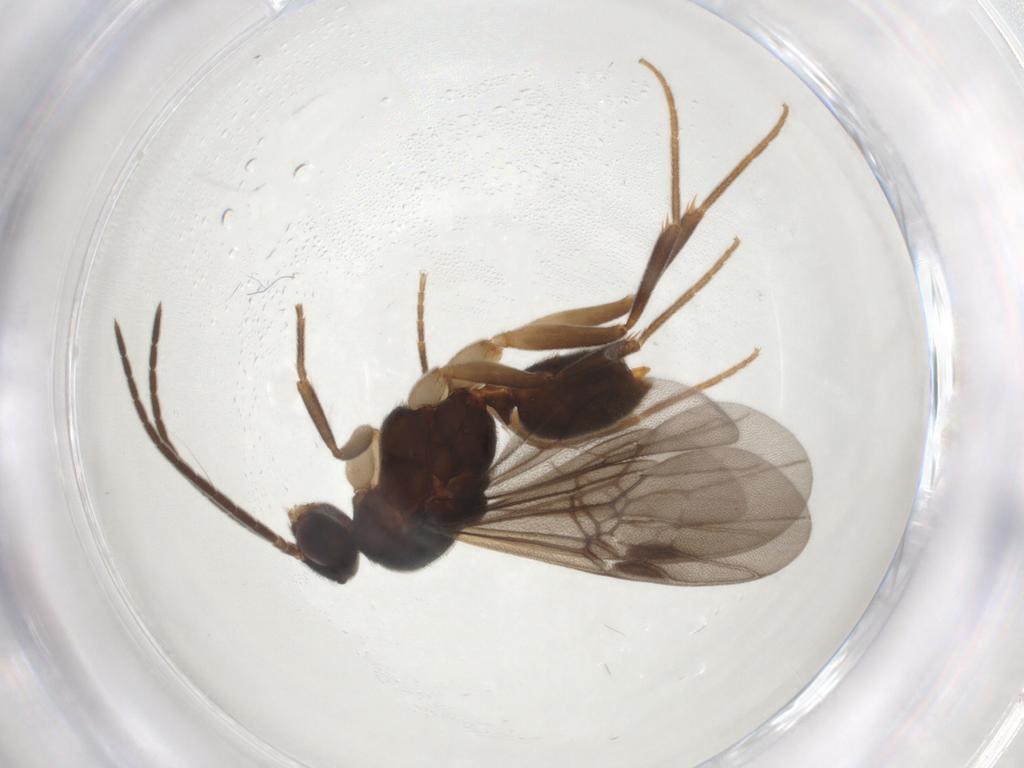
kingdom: Animalia
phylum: Arthropoda
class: Insecta
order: Hymenoptera
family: Formicidae
